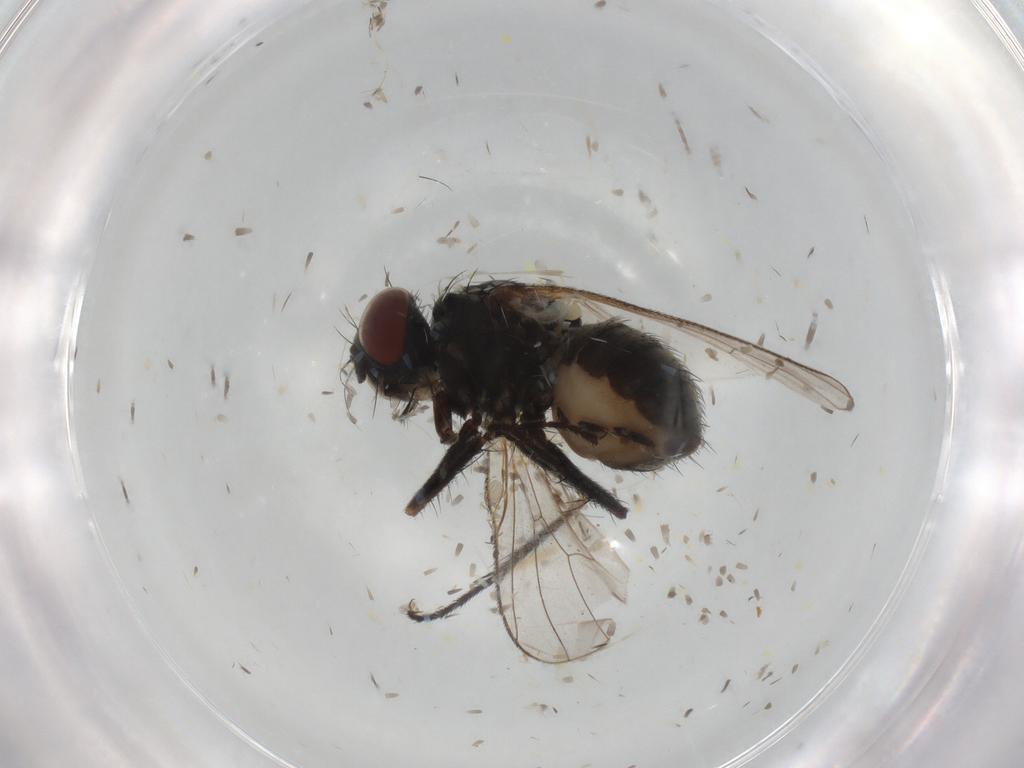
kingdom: Animalia
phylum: Arthropoda
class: Insecta
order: Diptera
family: Muscidae
